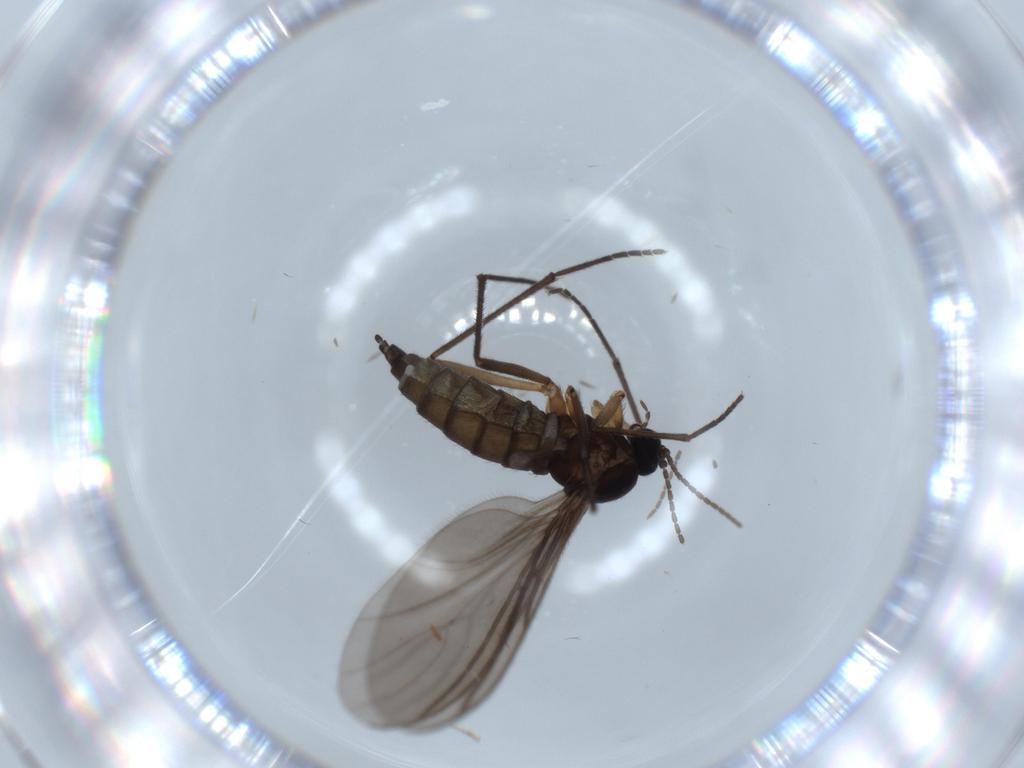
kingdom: Animalia
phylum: Arthropoda
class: Insecta
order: Diptera
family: Sciaridae
